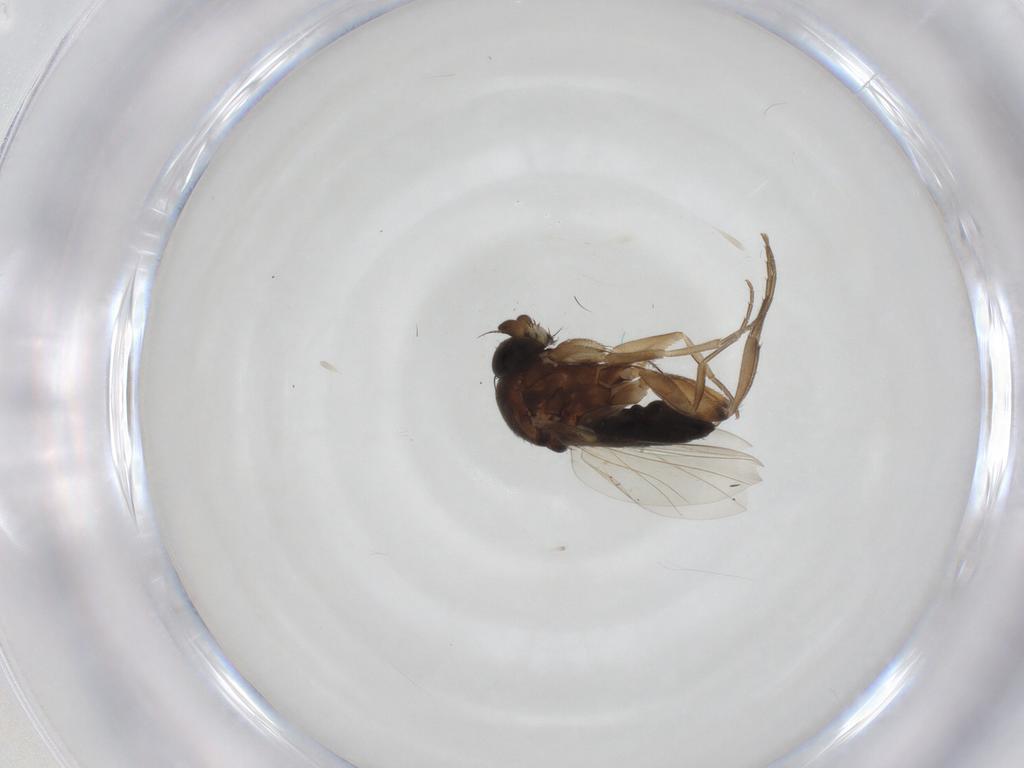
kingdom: Animalia
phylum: Arthropoda
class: Insecta
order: Diptera
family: Phoridae
